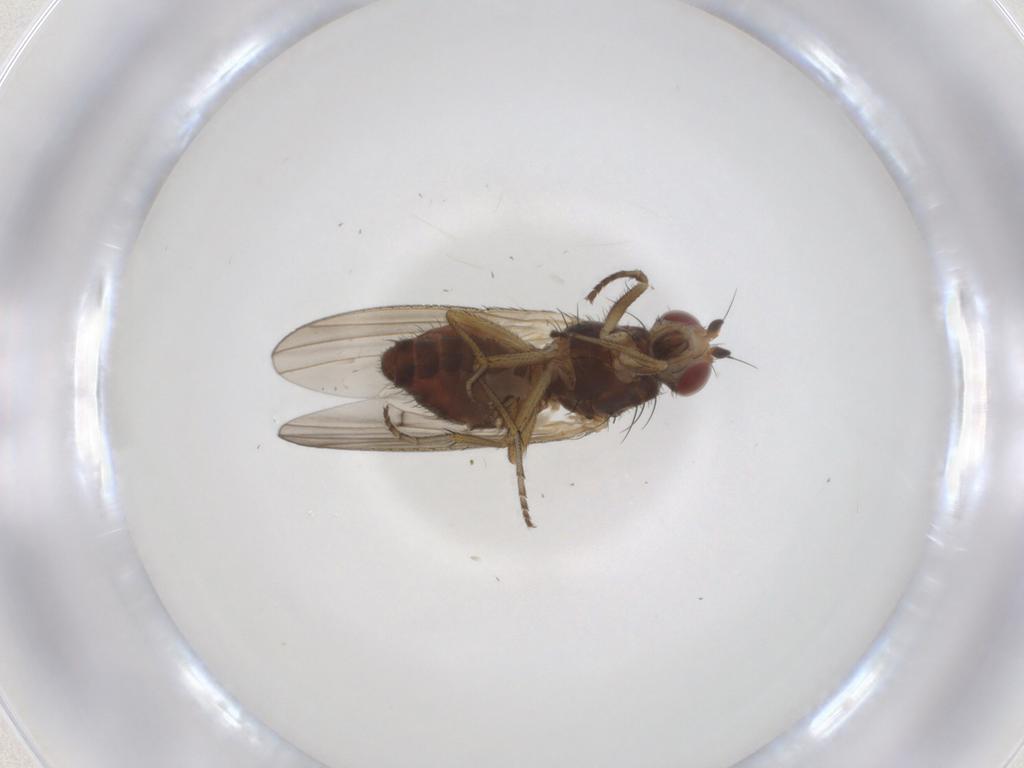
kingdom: Animalia
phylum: Arthropoda
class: Insecta
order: Diptera
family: Heleomyzidae
